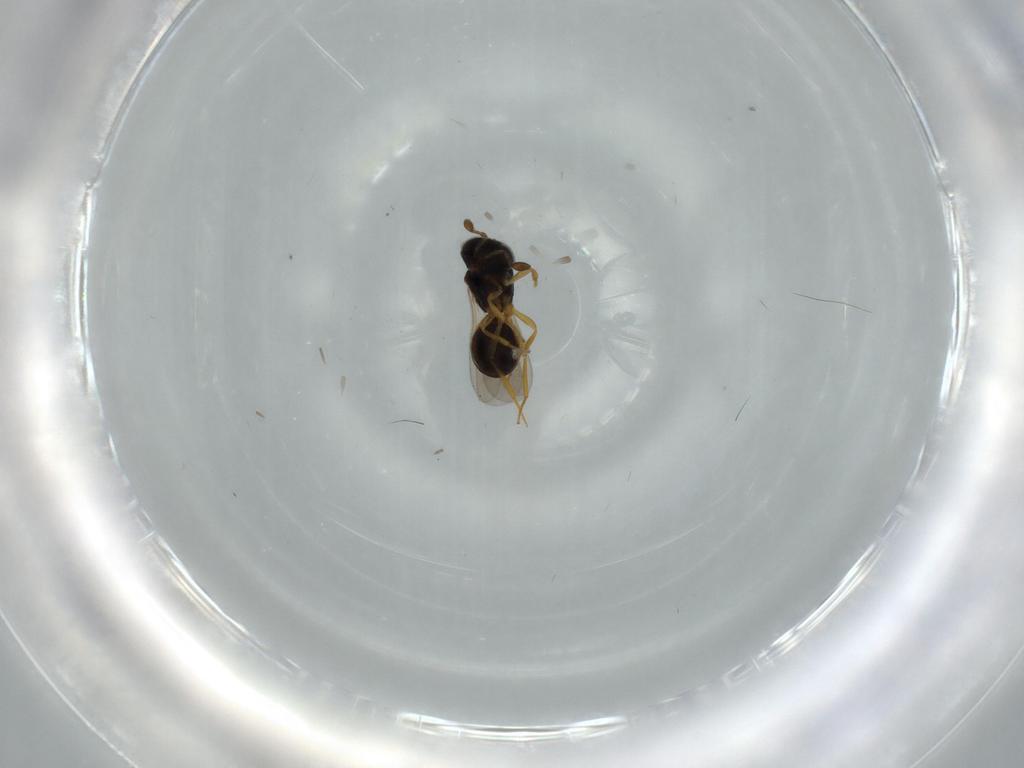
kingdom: Animalia
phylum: Arthropoda
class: Insecta
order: Hymenoptera
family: Scelionidae
